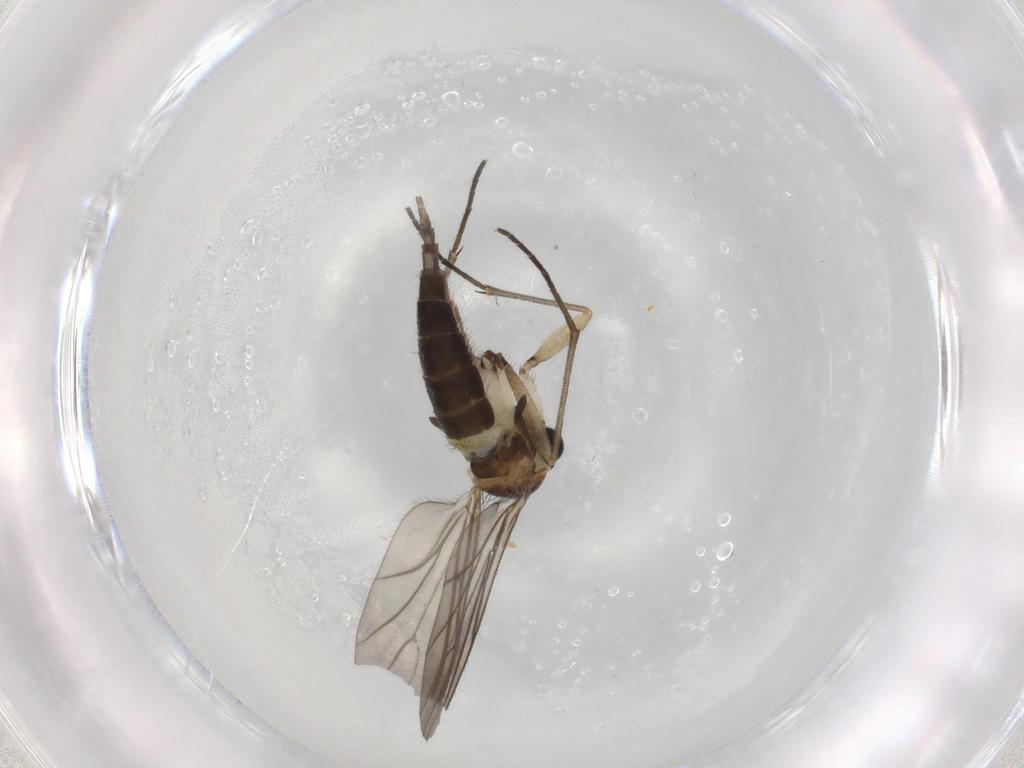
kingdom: Animalia
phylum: Arthropoda
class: Insecta
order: Diptera
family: Sciaridae
